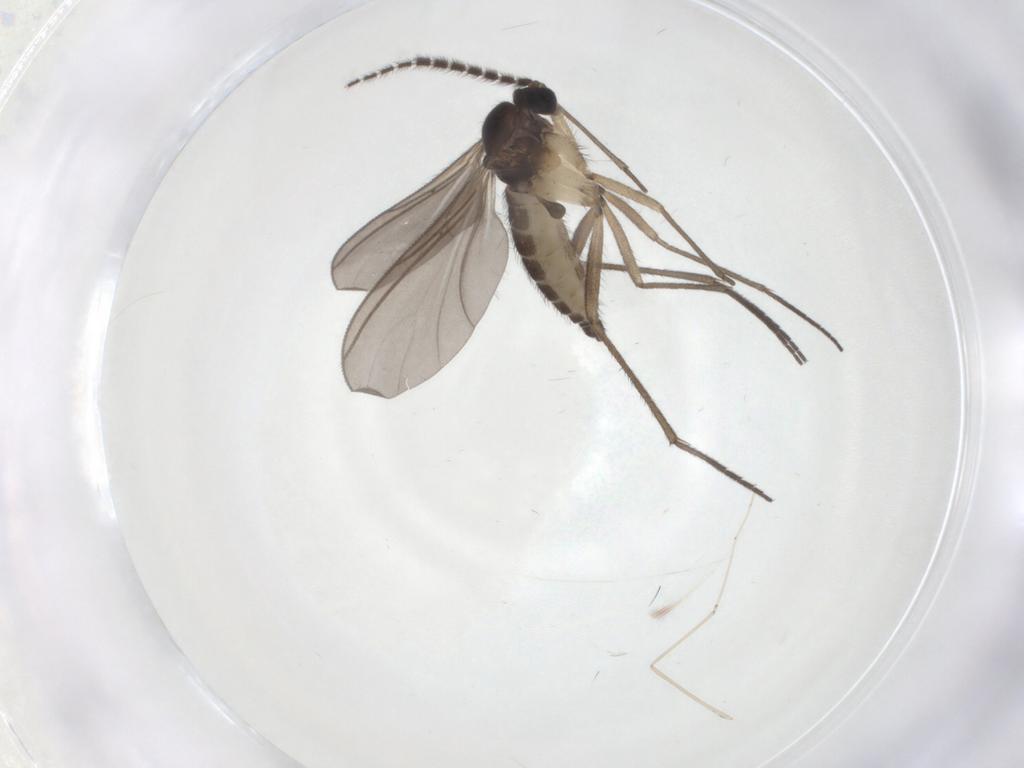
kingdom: Animalia
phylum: Arthropoda
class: Insecta
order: Diptera
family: Sciaridae
